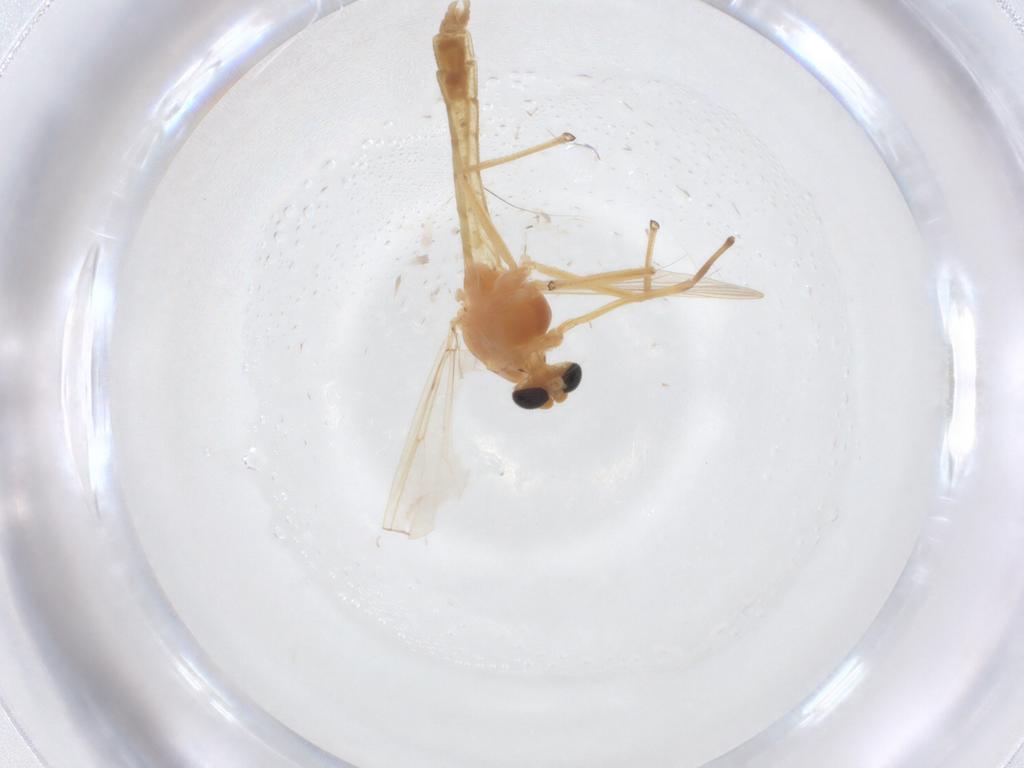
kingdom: Animalia
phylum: Arthropoda
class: Insecta
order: Diptera
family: Chironomidae
